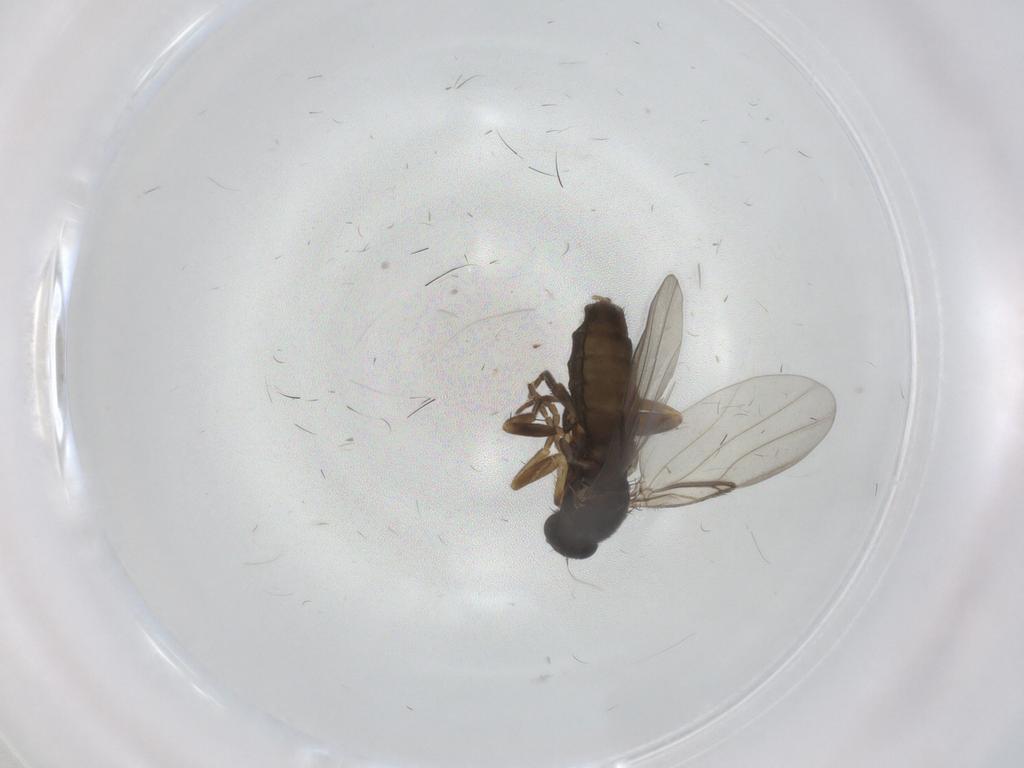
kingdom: Animalia
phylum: Arthropoda
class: Insecta
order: Diptera
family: Phoridae
